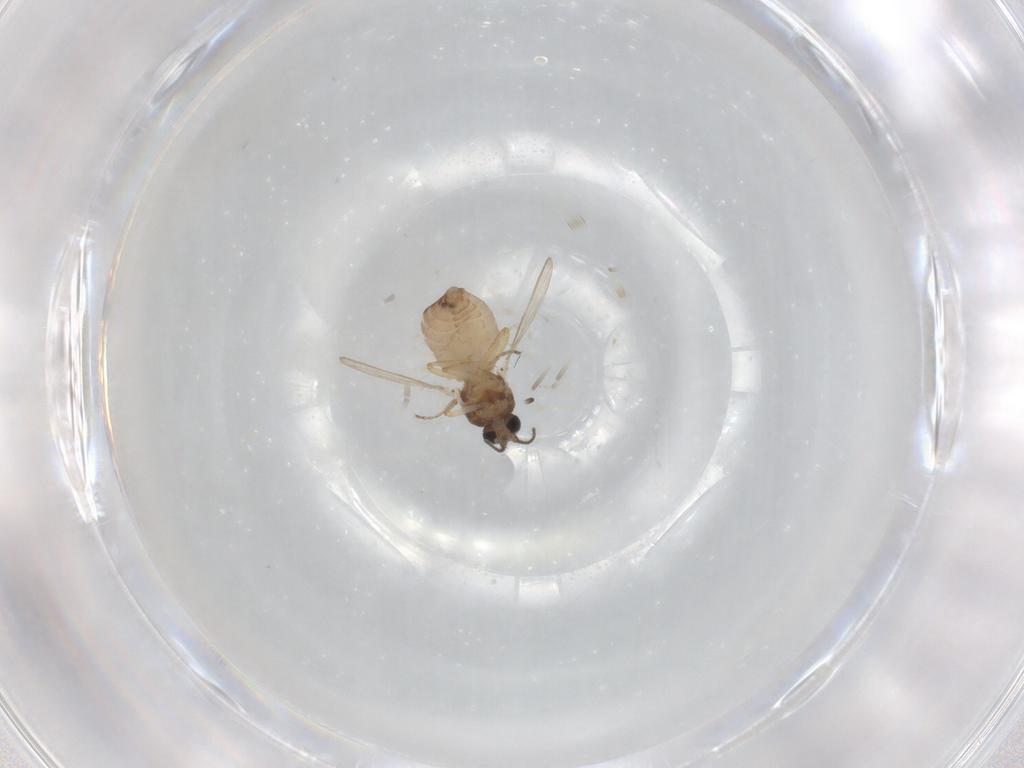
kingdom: Animalia
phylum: Arthropoda
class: Insecta
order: Diptera
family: Ceratopogonidae
